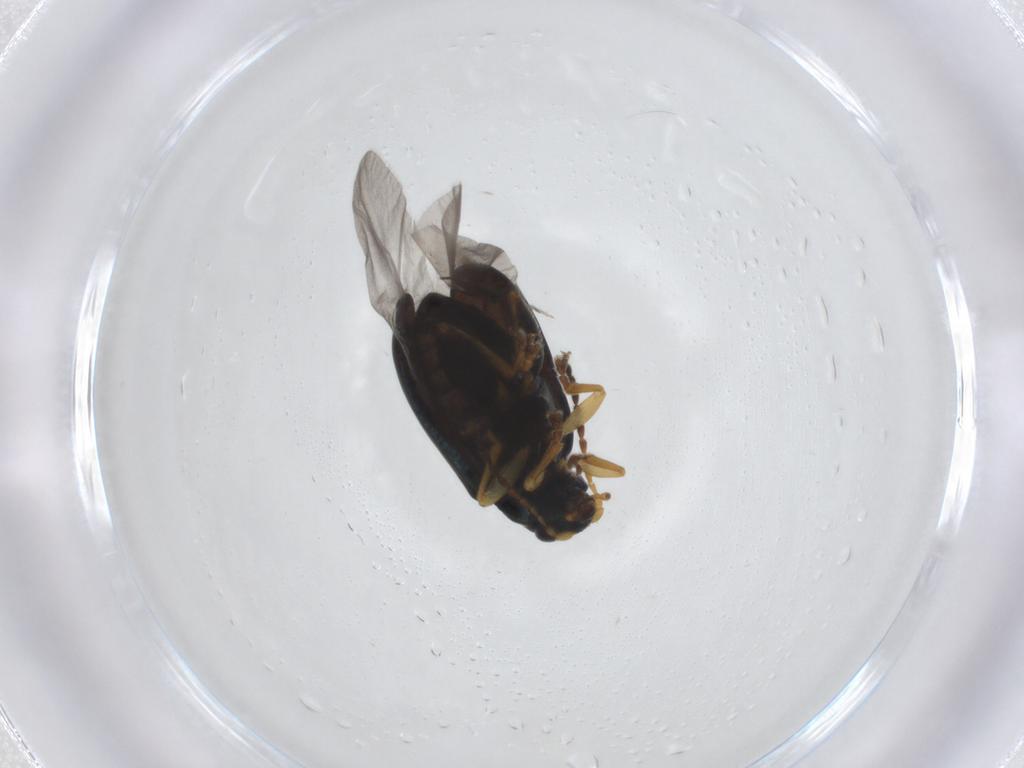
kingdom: Animalia
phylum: Arthropoda
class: Insecta
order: Coleoptera
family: Chrysomelidae
